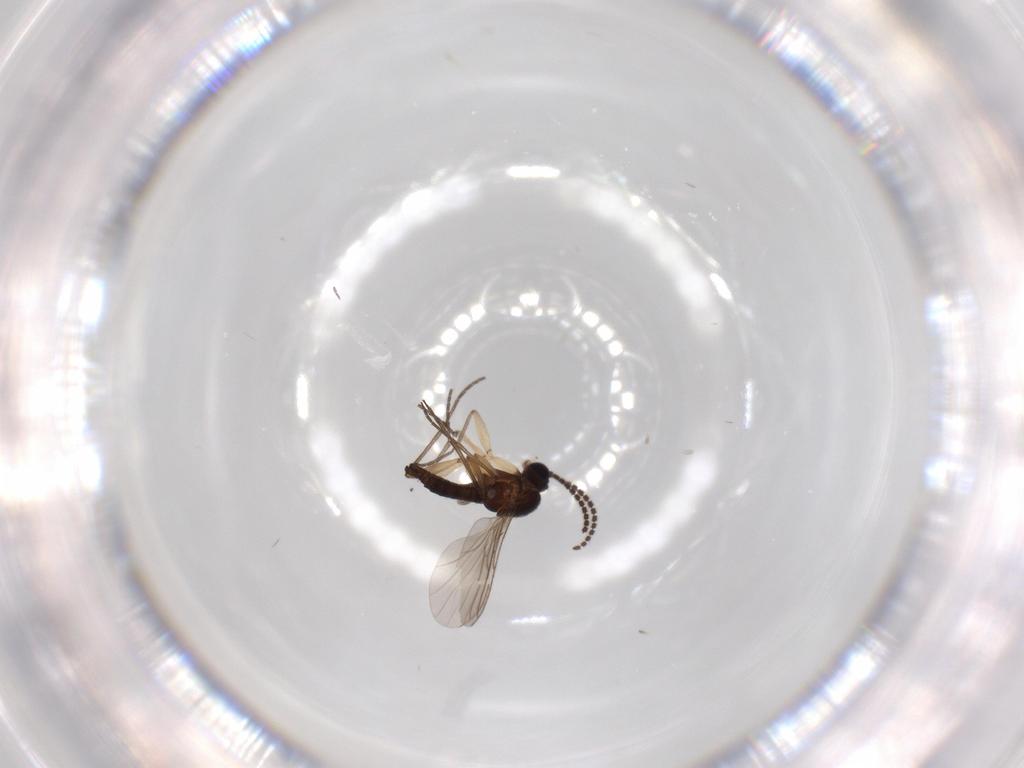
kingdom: Animalia
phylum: Arthropoda
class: Insecta
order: Diptera
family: Sciaridae
